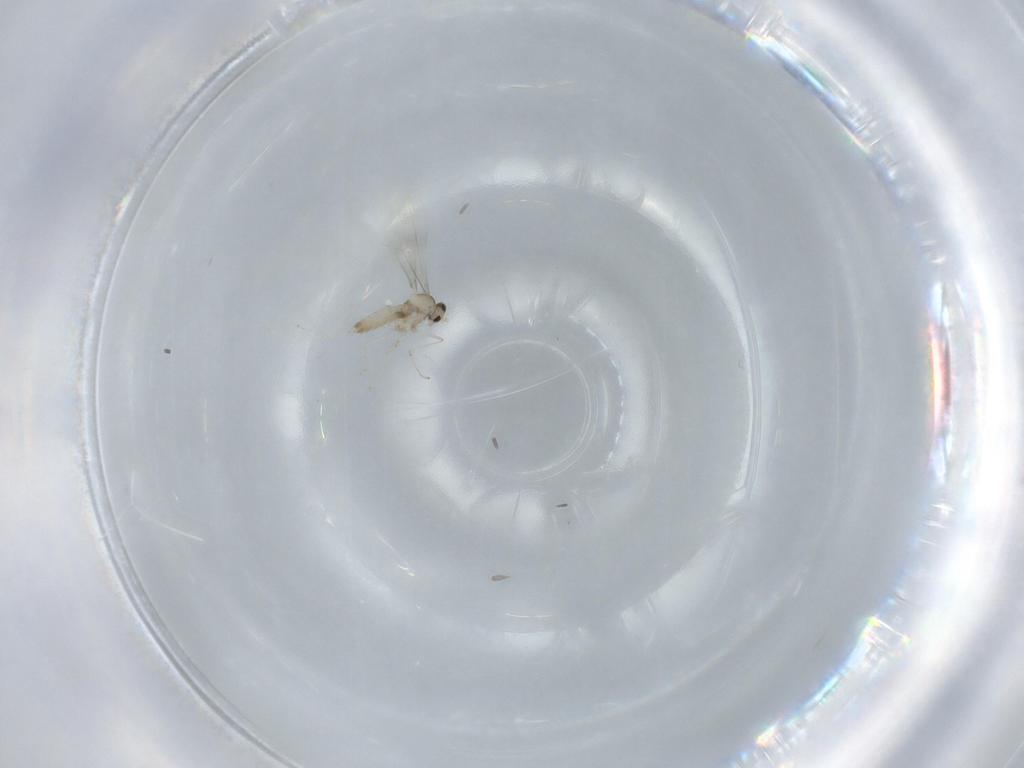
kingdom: Animalia
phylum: Arthropoda
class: Insecta
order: Diptera
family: Cecidomyiidae
